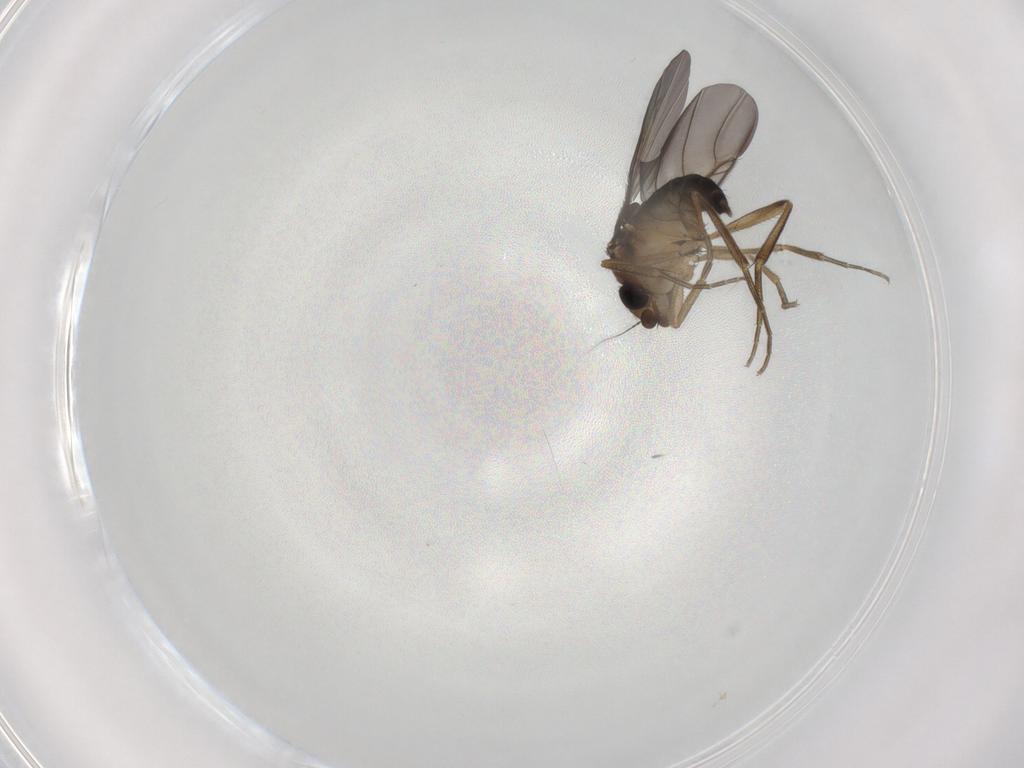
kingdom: Animalia
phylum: Arthropoda
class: Insecta
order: Diptera
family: Phoridae
